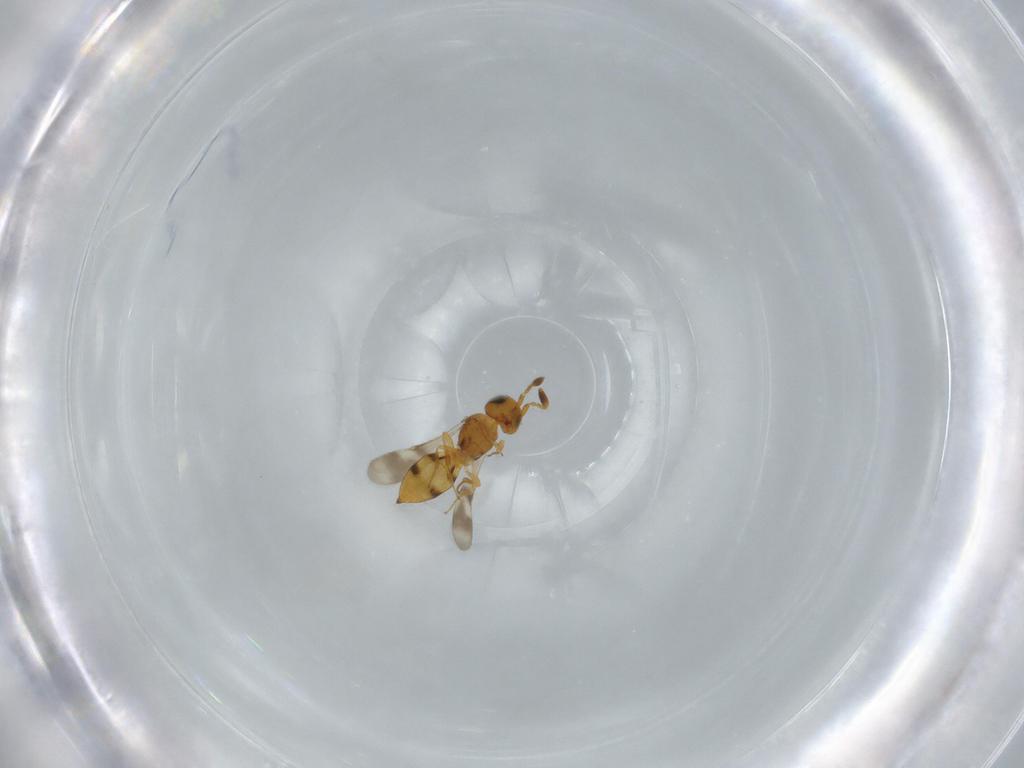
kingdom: Animalia
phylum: Arthropoda
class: Insecta
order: Hymenoptera
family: Scelionidae
